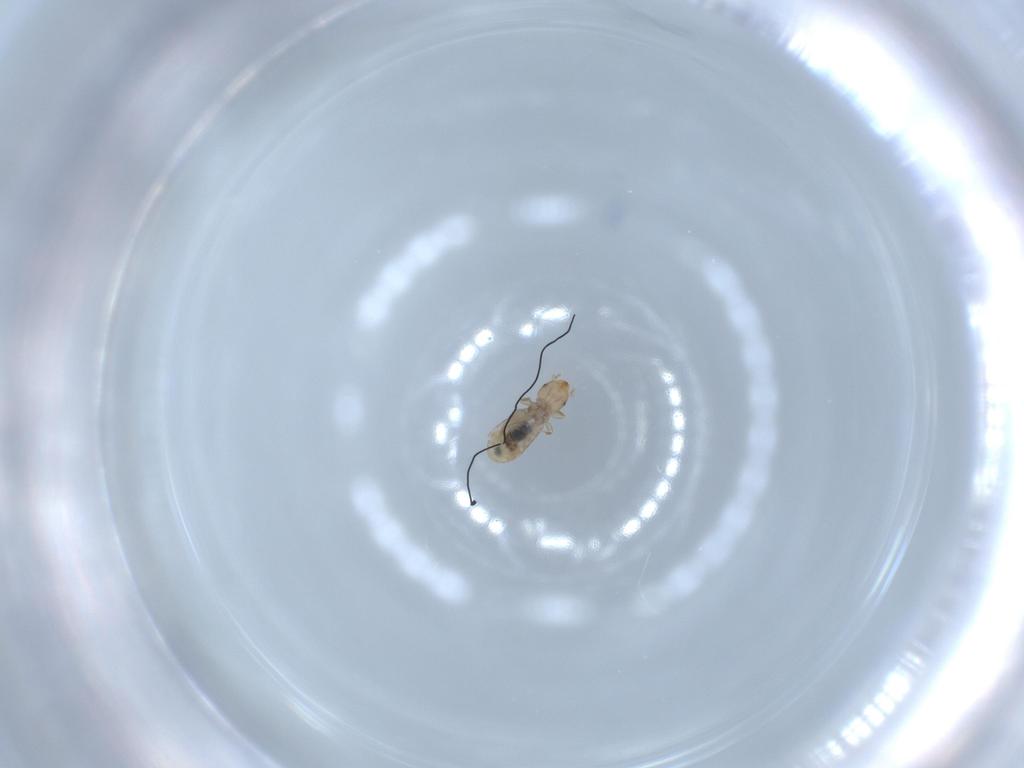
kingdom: Animalia
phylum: Arthropoda
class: Insecta
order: Psocodea
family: Liposcelididae
